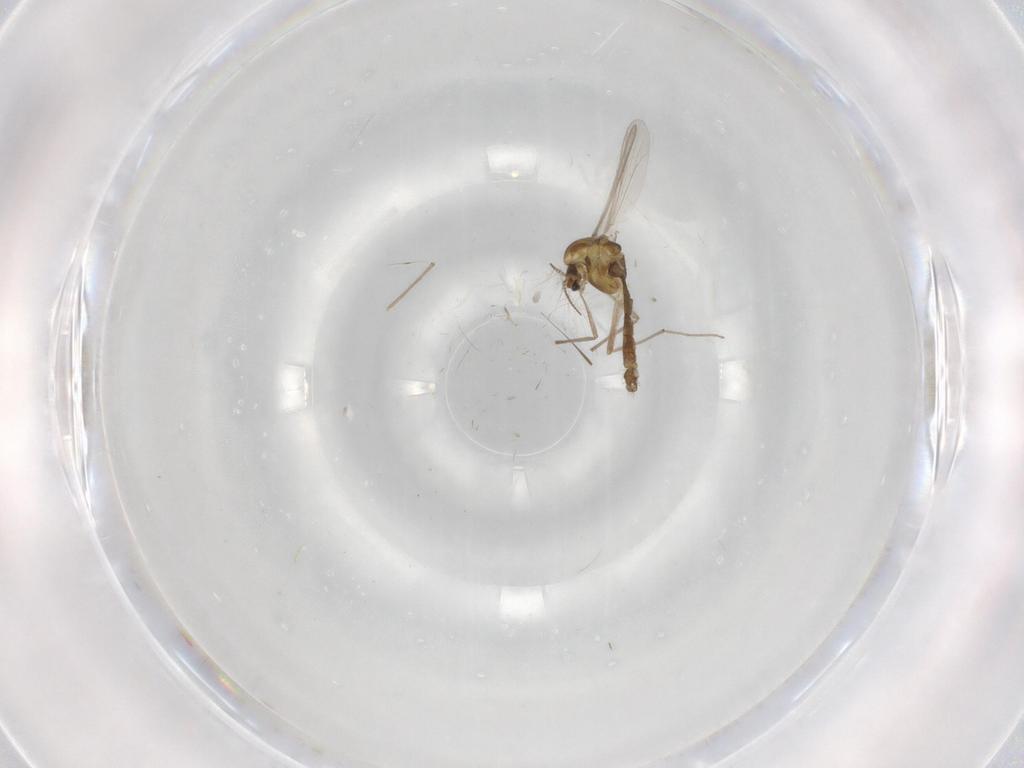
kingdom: Animalia
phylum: Arthropoda
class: Insecta
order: Diptera
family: Chironomidae
